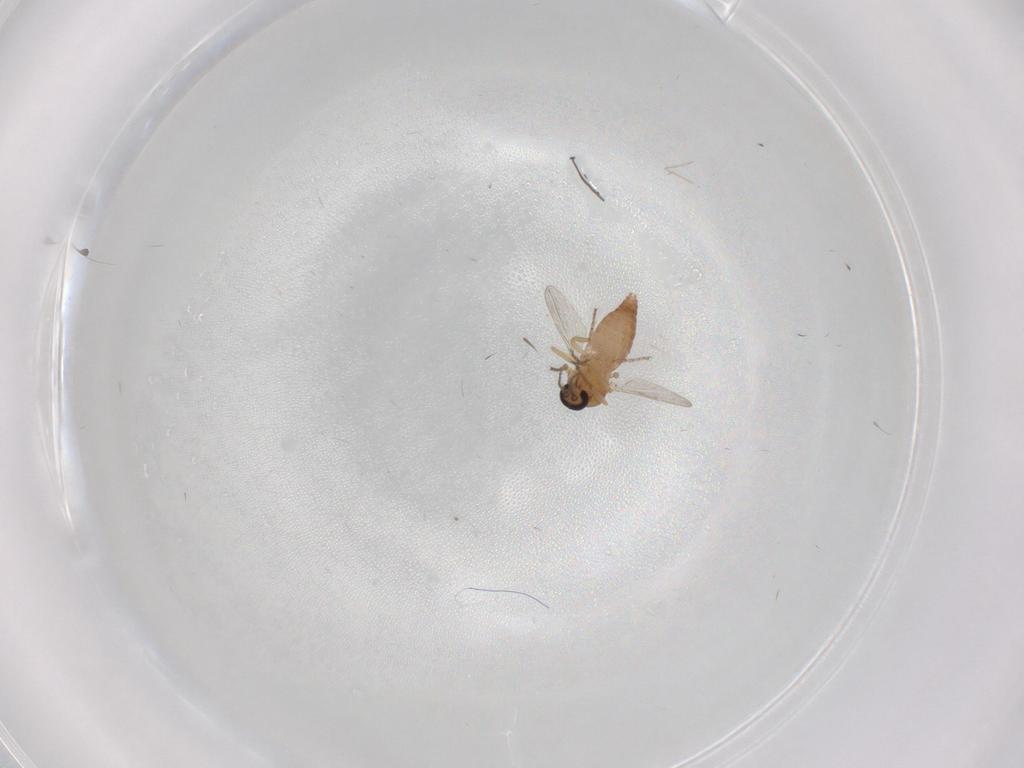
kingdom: Animalia
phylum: Arthropoda
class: Insecta
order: Diptera
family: Ceratopogonidae
